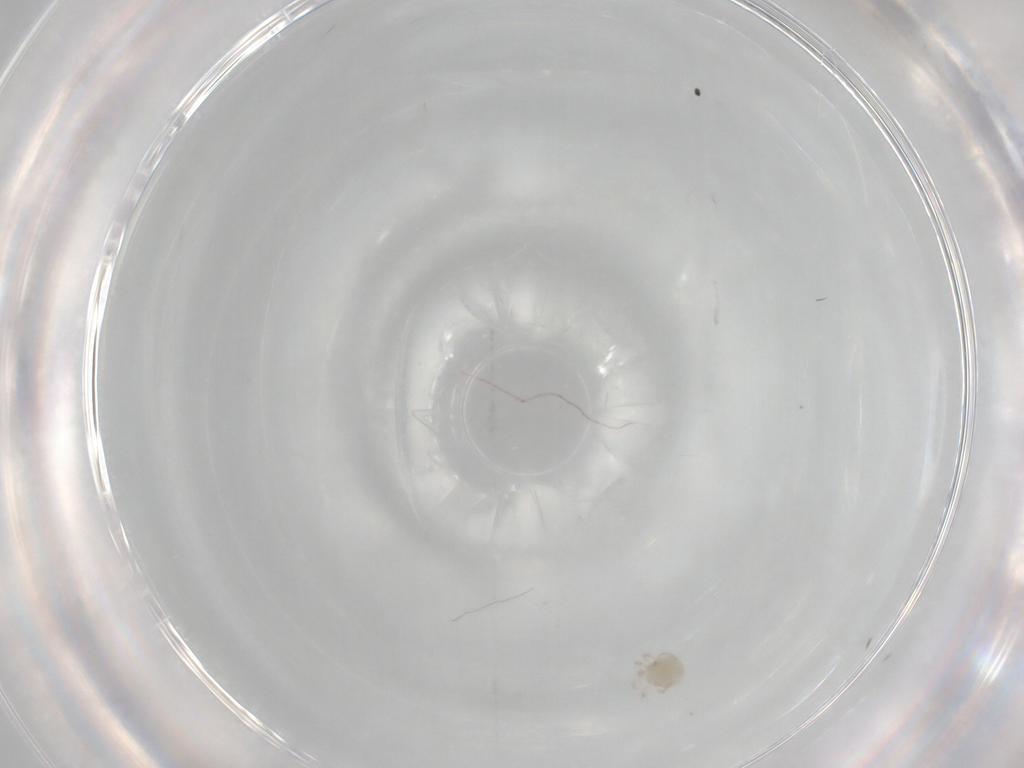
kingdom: Animalia
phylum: Arthropoda
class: Arachnida
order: Trombidiformes
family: Lebertiidae
